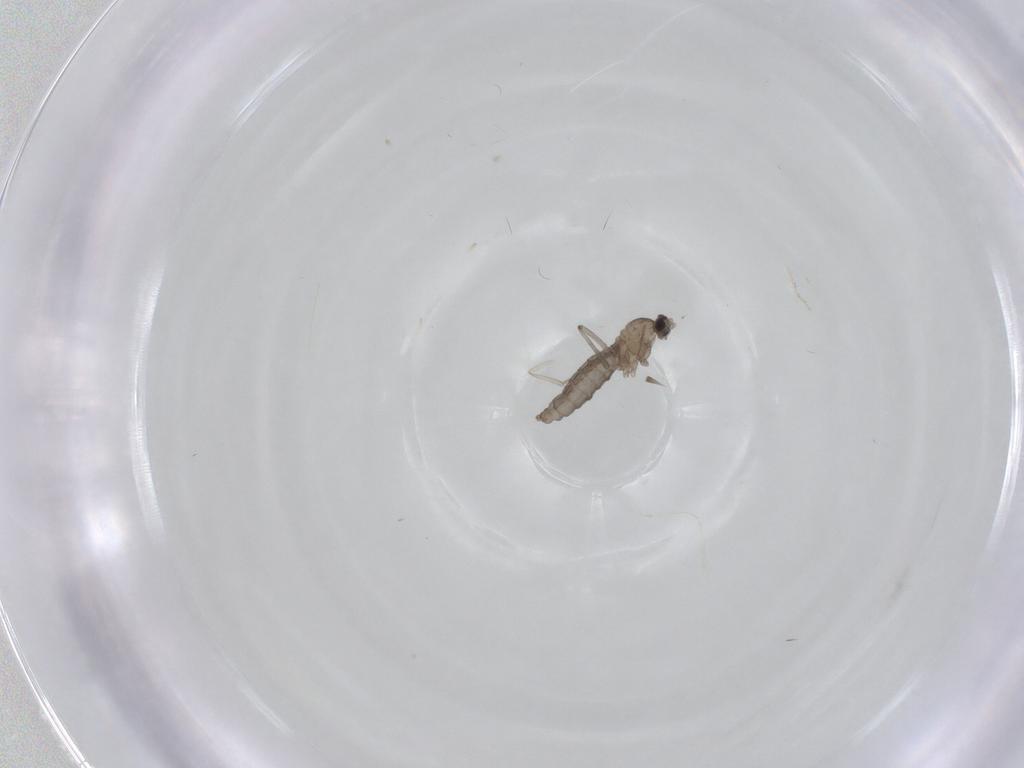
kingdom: Animalia
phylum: Arthropoda
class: Insecta
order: Diptera
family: Psychodidae
